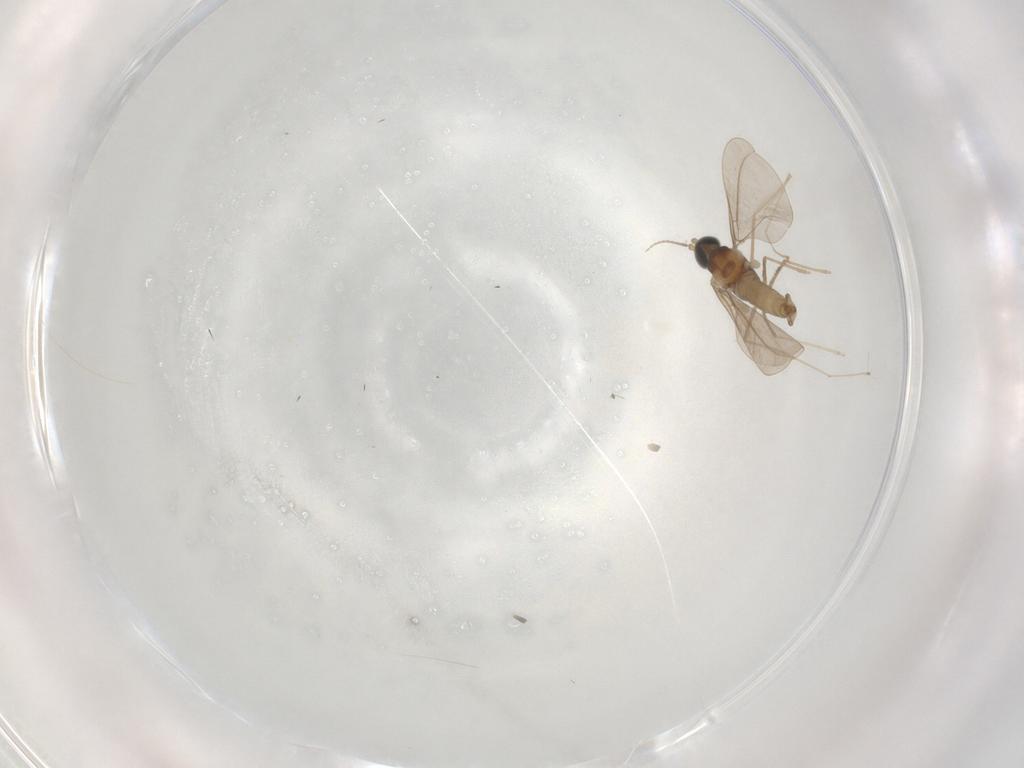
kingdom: Animalia
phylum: Arthropoda
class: Insecta
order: Diptera
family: Cecidomyiidae
